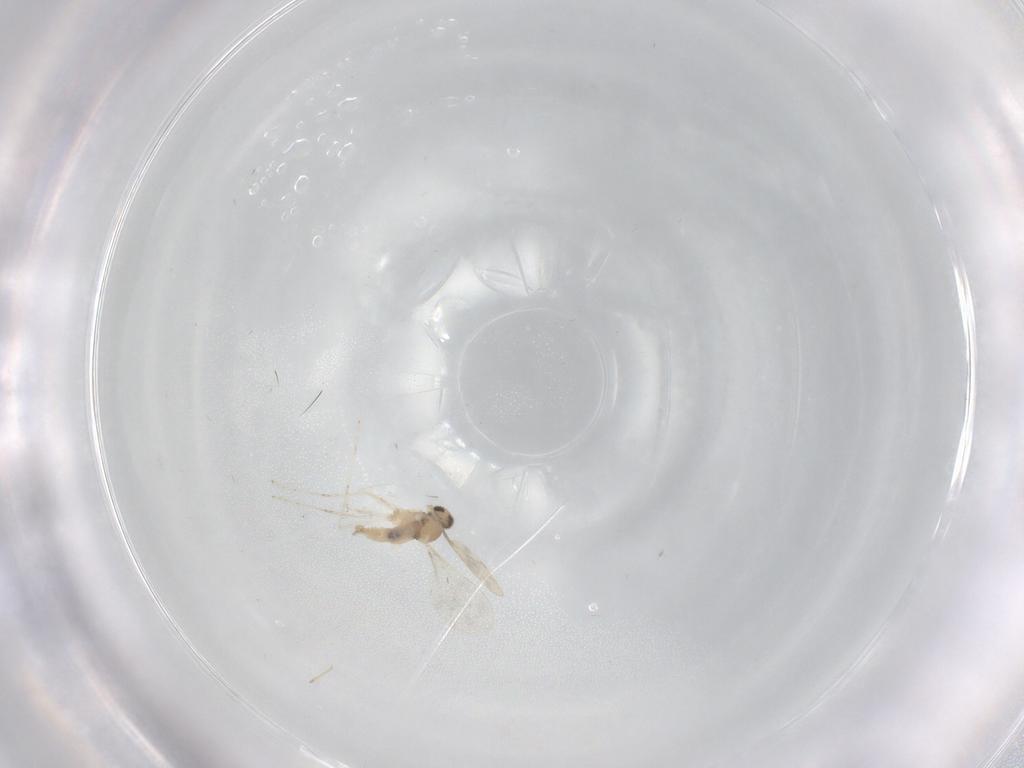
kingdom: Animalia
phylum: Arthropoda
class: Insecta
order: Diptera
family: Cecidomyiidae
